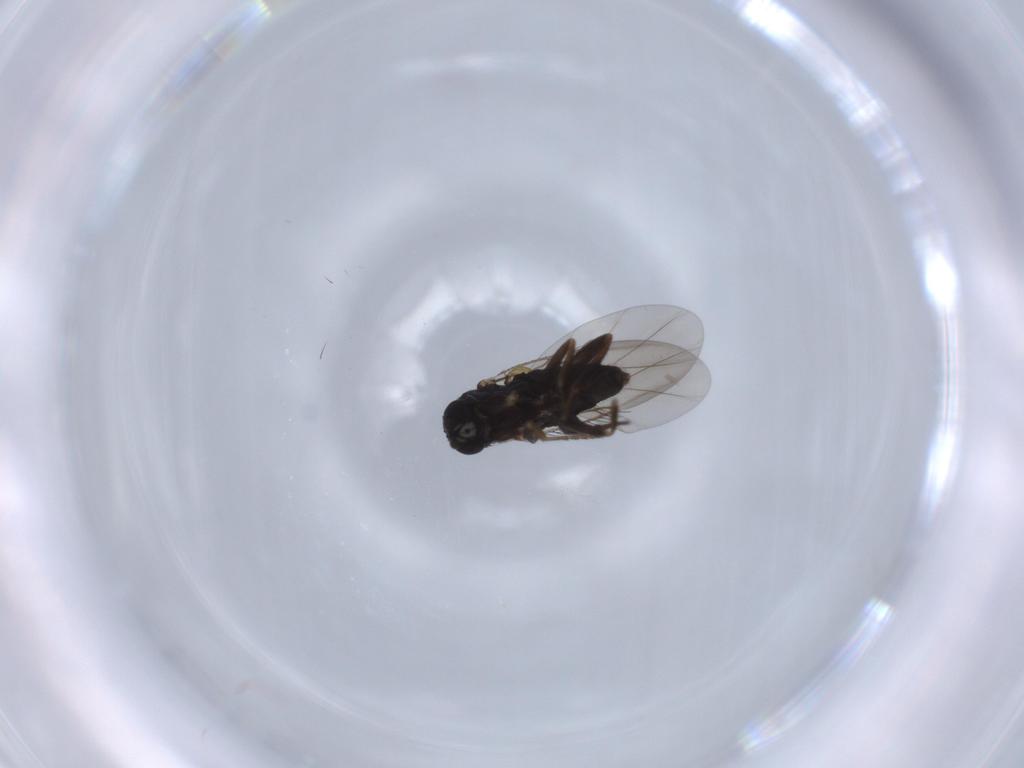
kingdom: Animalia
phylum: Arthropoda
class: Insecta
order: Diptera
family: Phoridae
